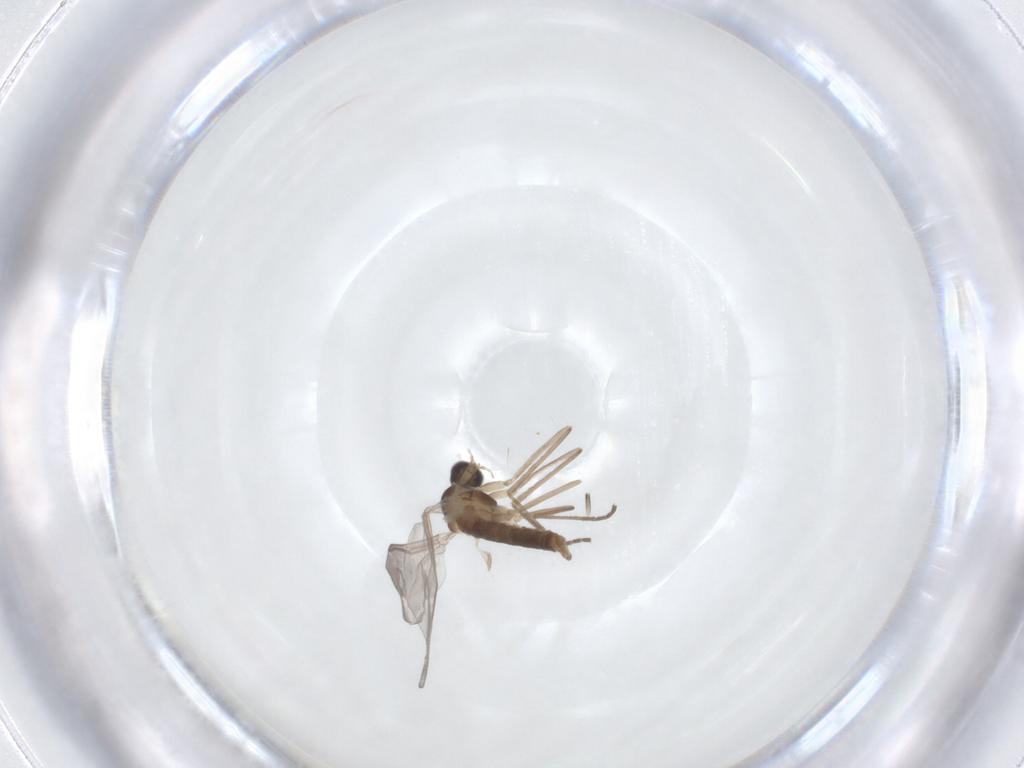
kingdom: Animalia
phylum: Arthropoda
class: Insecta
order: Diptera
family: Cecidomyiidae
